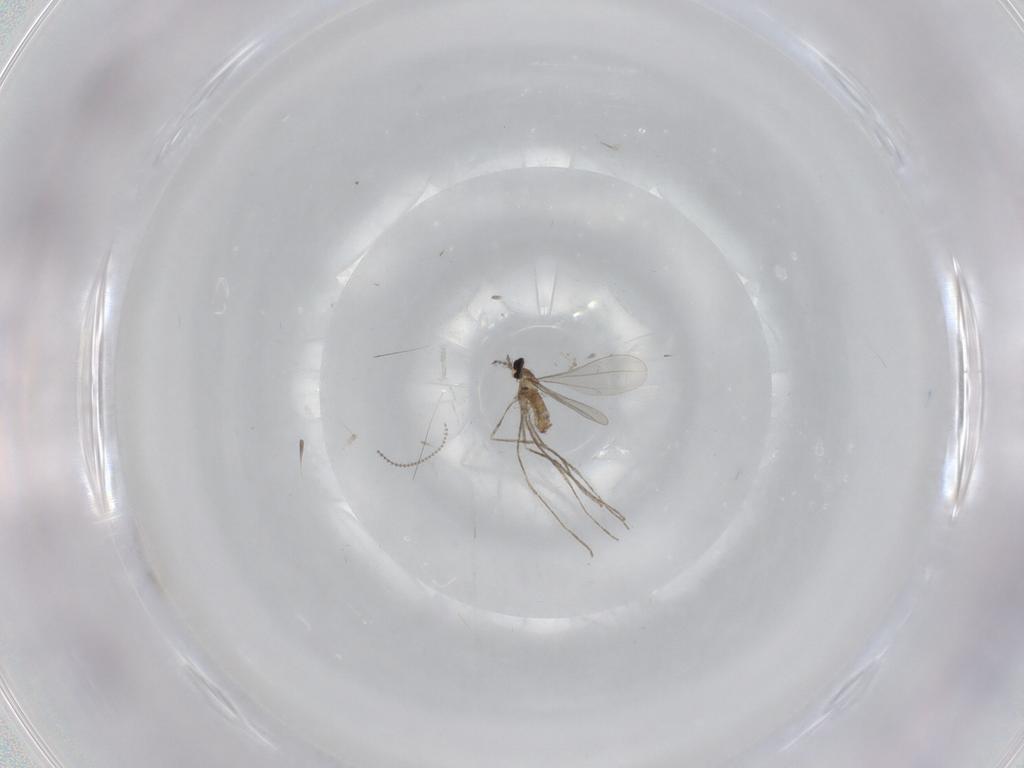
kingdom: Animalia
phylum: Arthropoda
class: Insecta
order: Diptera
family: Cecidomyiidae
